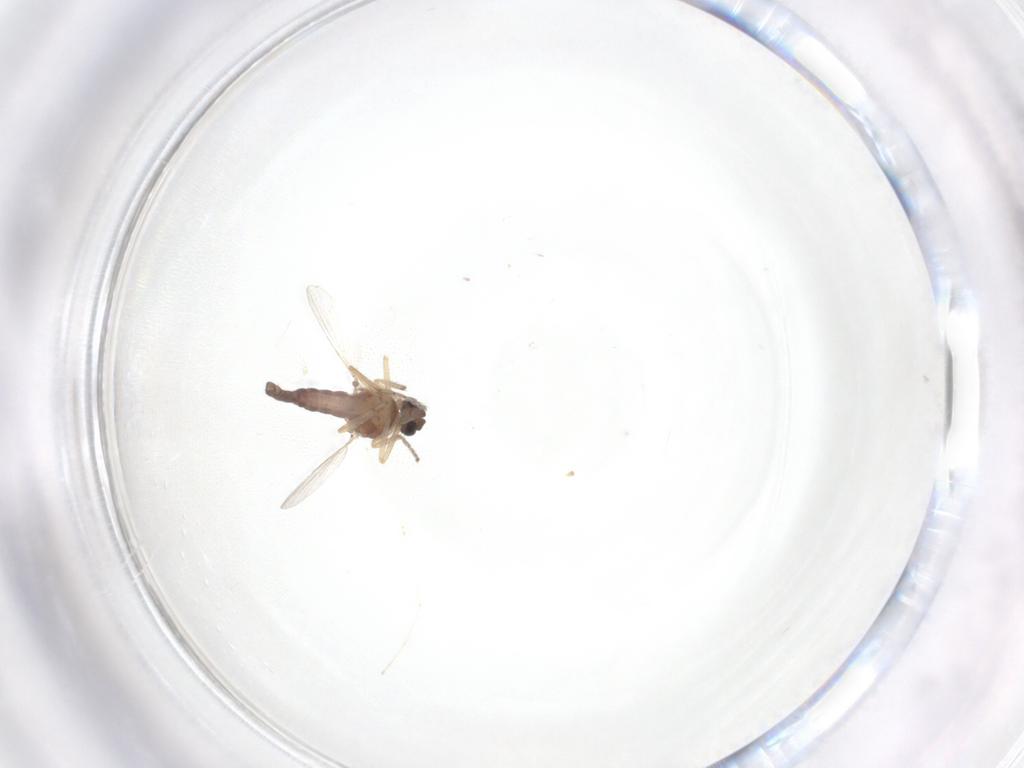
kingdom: Animalia
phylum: Arthropoda
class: Insecta
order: Diptera
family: Ceratopogonidae
